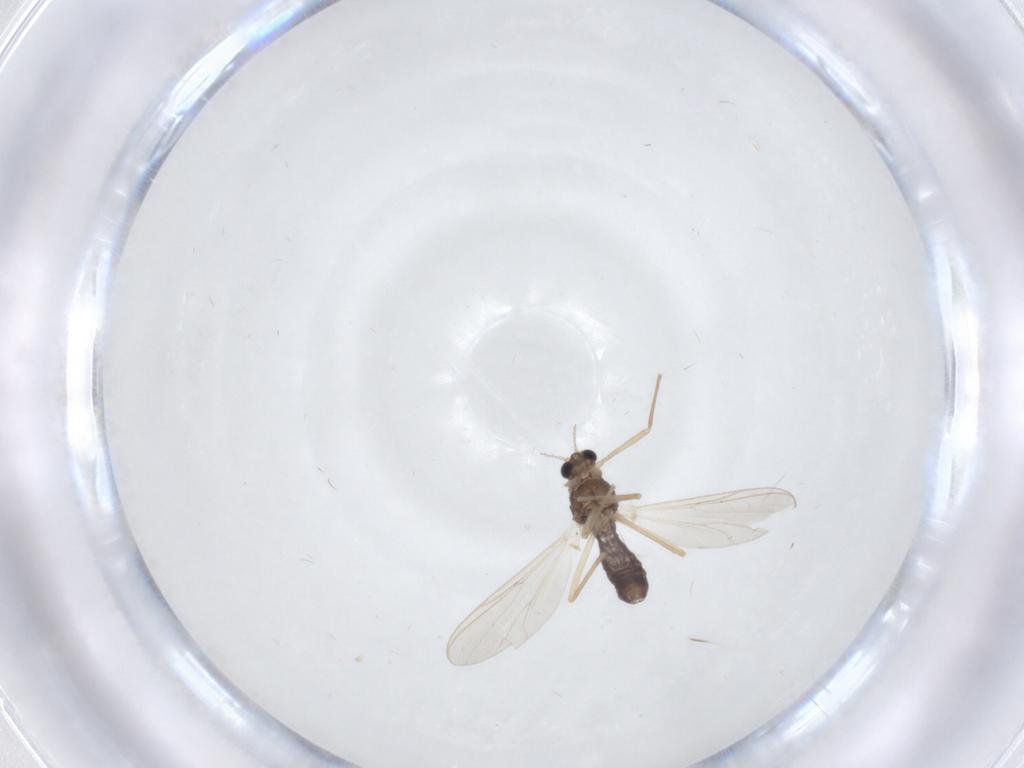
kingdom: Animalia
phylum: Arthropoda
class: Insecta
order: Diptera
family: Chironomidae
